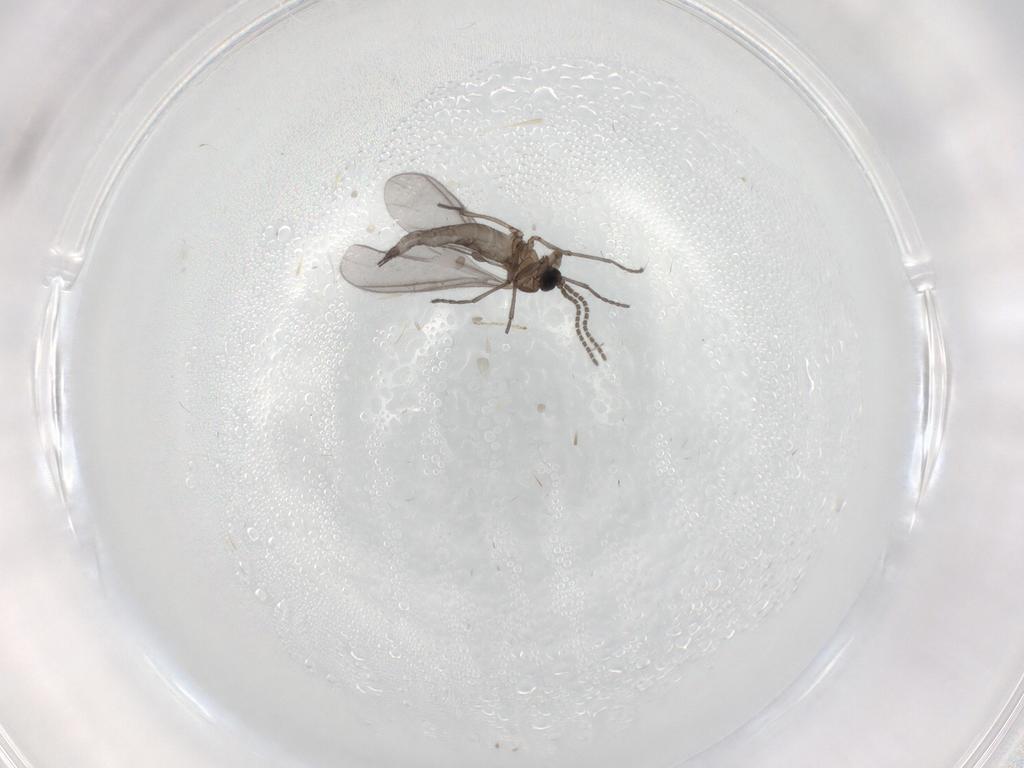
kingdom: Animalia
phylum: Arthropoda
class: Insecta
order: Diptera
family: Sciaridae
